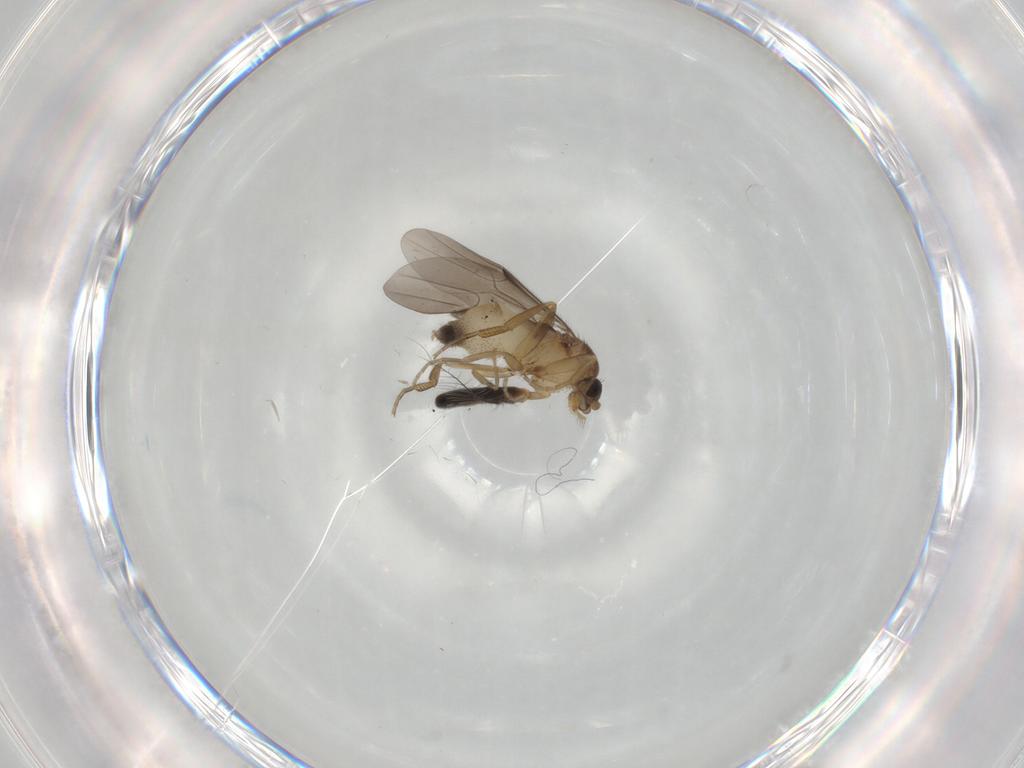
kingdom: Animalia
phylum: Arthropoda
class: Insecta
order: Diptera
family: Phoridae
